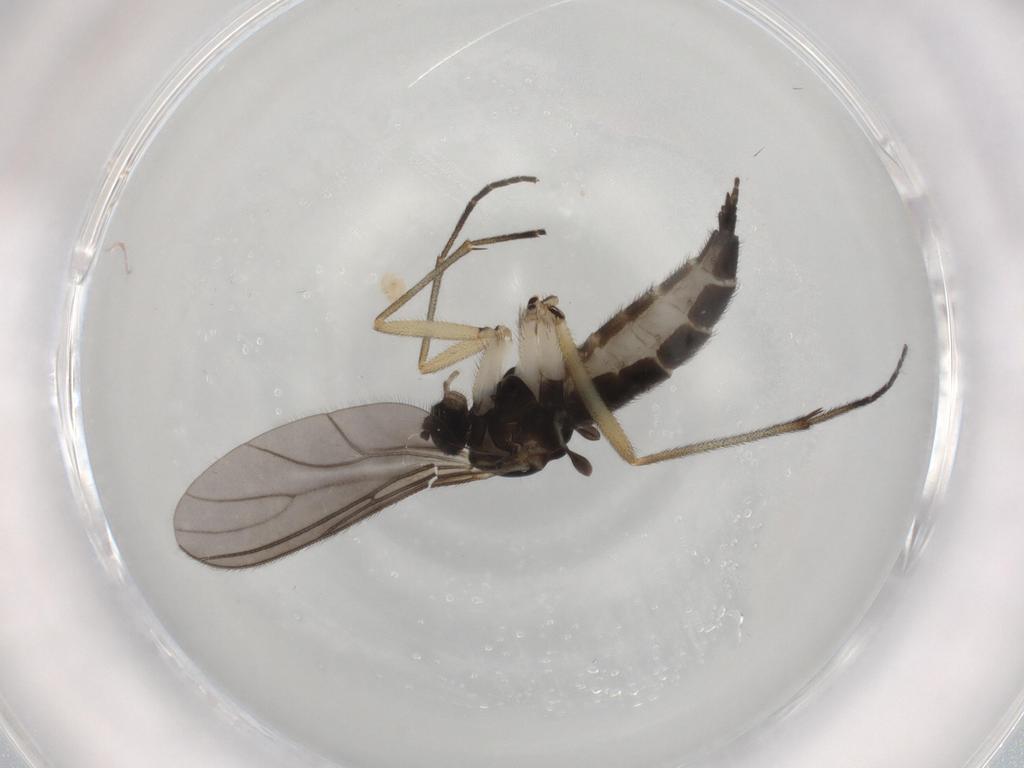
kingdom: Animalia
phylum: Arthropoda
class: Insecta
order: Diptera
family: Sciaridae
